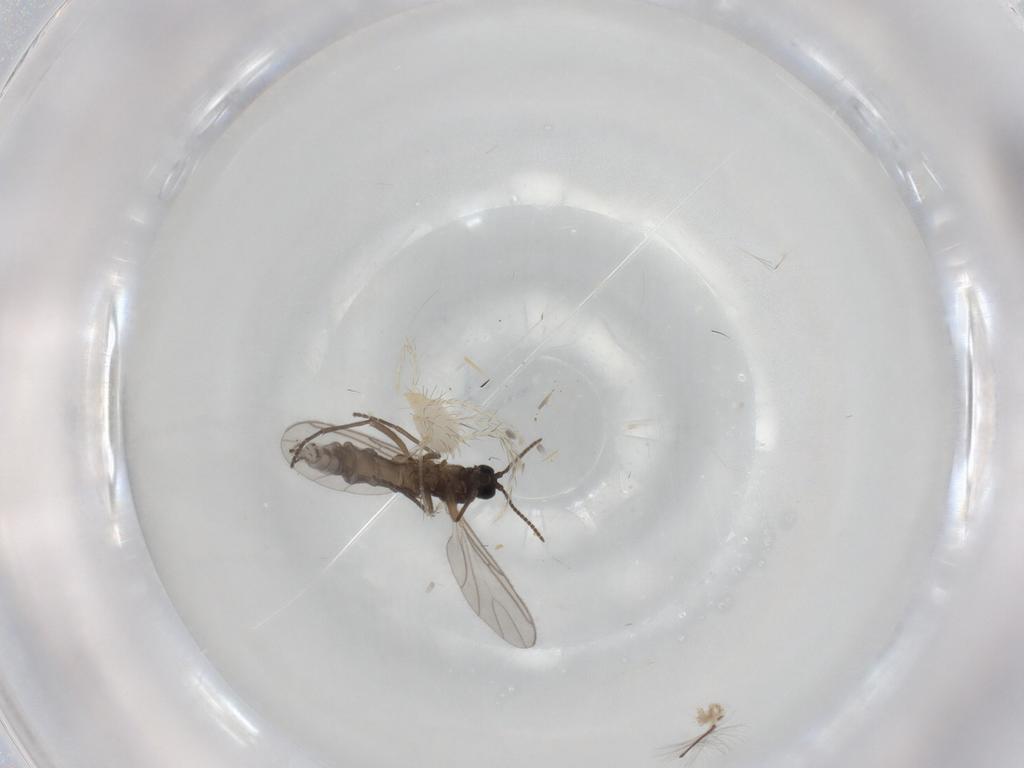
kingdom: Animalia
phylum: Arthropoda
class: Insecta
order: Diptera
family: Sciaridae
